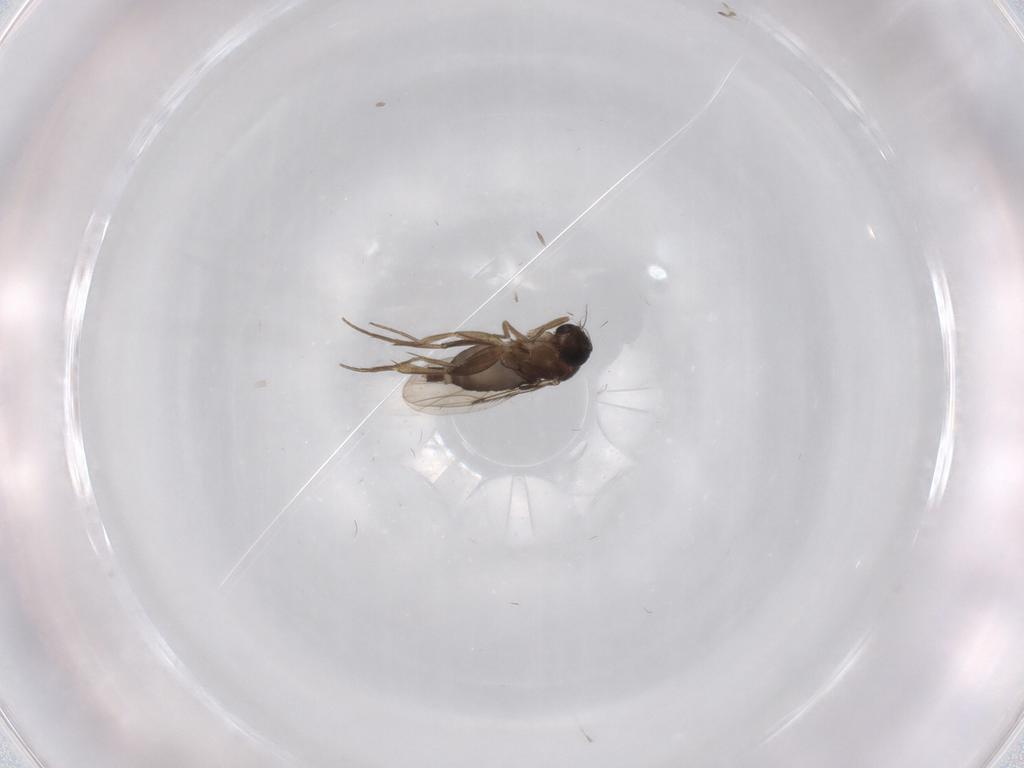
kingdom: Animalia
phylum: Arthropoda
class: Insecta
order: Diptera
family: Phoridae
